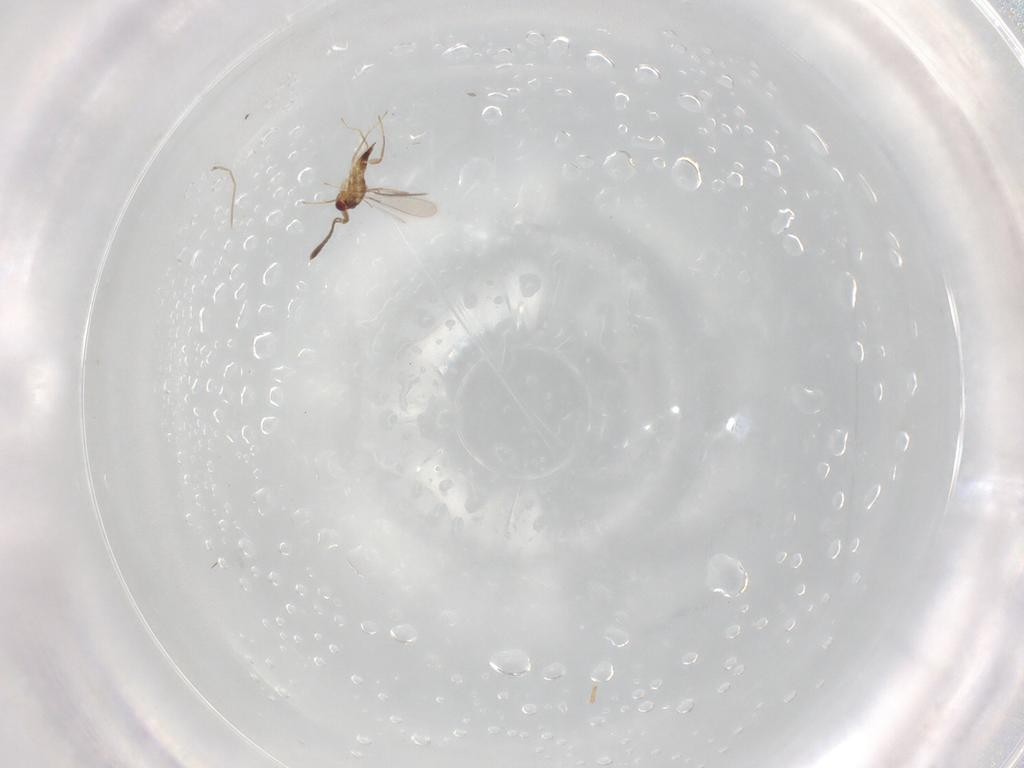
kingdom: Animalia
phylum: Arthropoda
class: Insecta
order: Hymenoptera
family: Mymaridae
